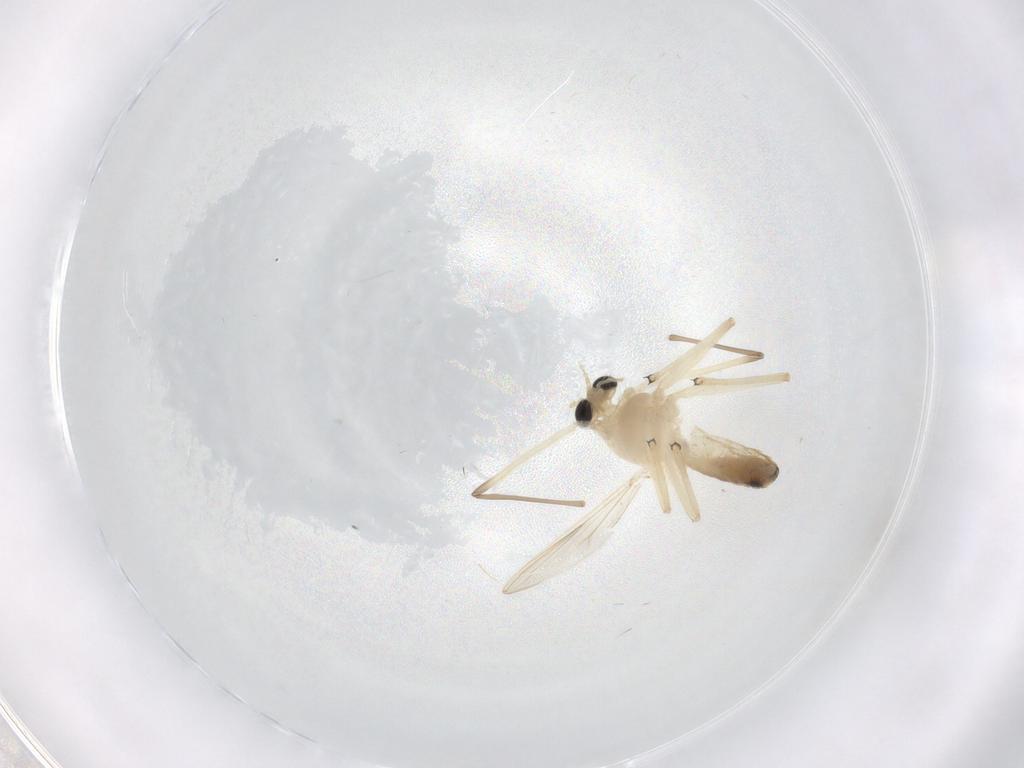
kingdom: Animalia
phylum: Arthropoda
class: Insecta
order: Diptera
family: Chironomidae
